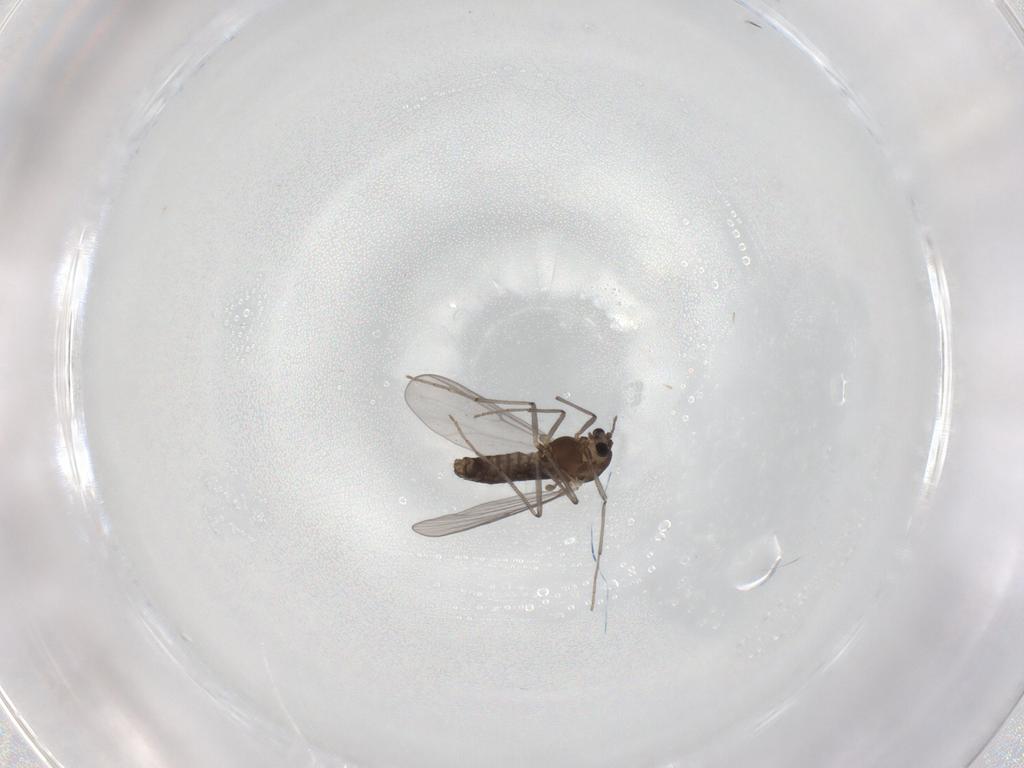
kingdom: Animalia
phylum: Arthropoda
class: Insecta
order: Diptera
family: Chironomidae
